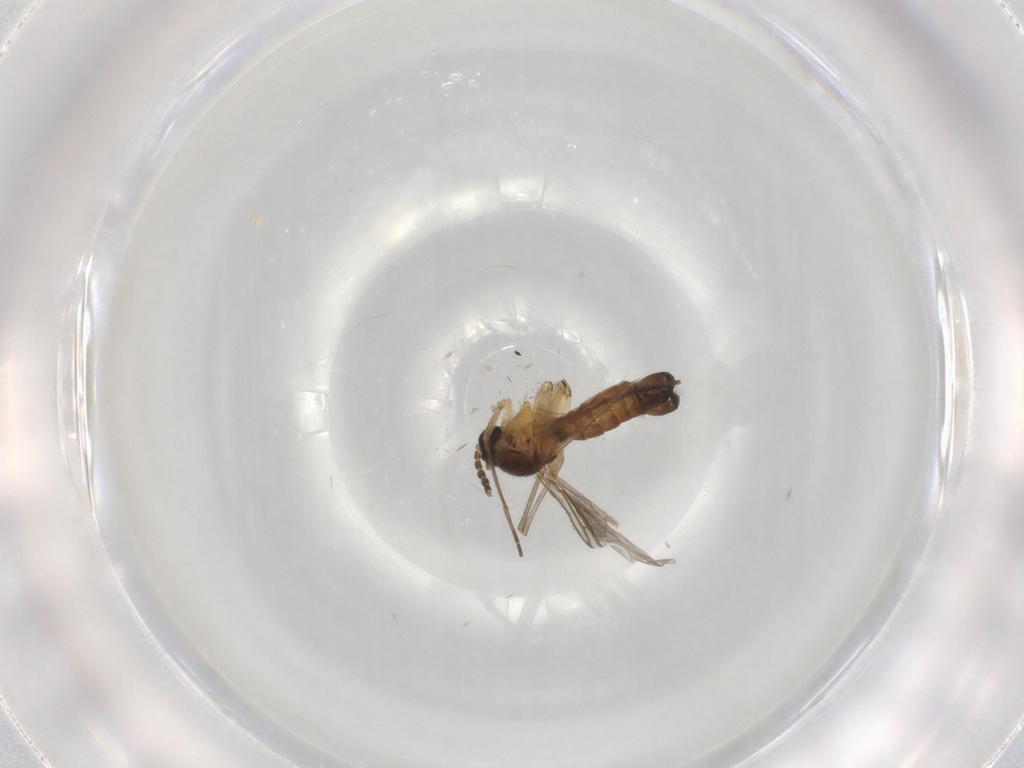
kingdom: Animalia
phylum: Arthropoda
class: Insecta
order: Diptera
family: Sciaridae
